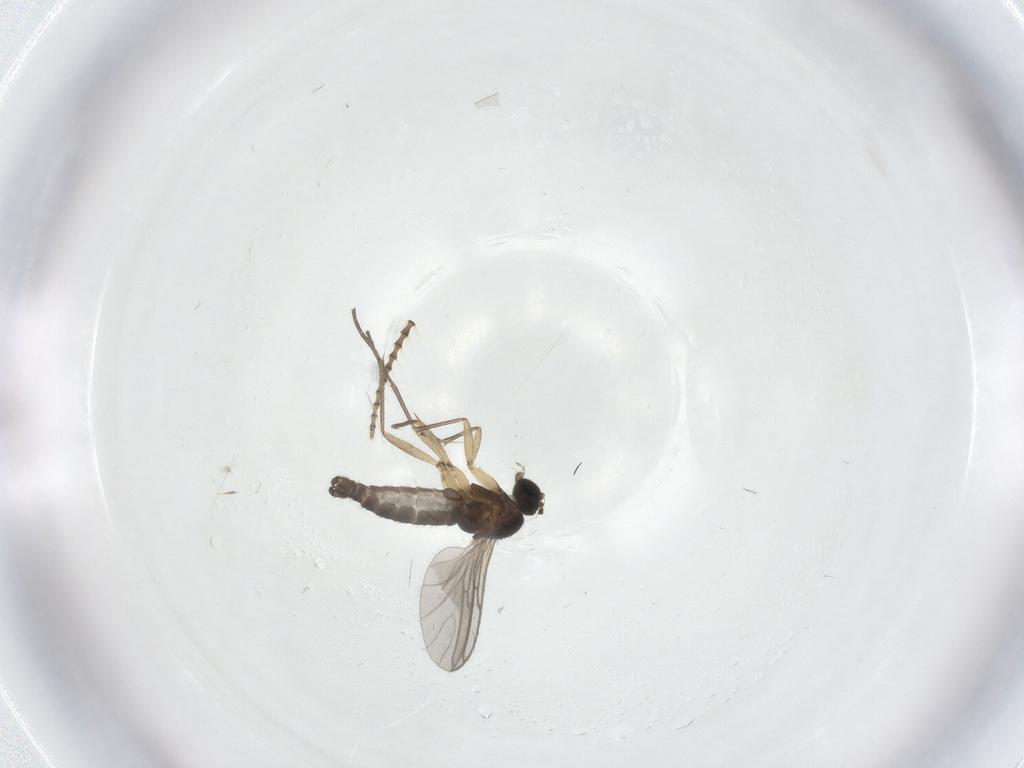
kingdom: Animalia
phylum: Arthropoda
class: Insecta
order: Diptera
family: Sciaridae
